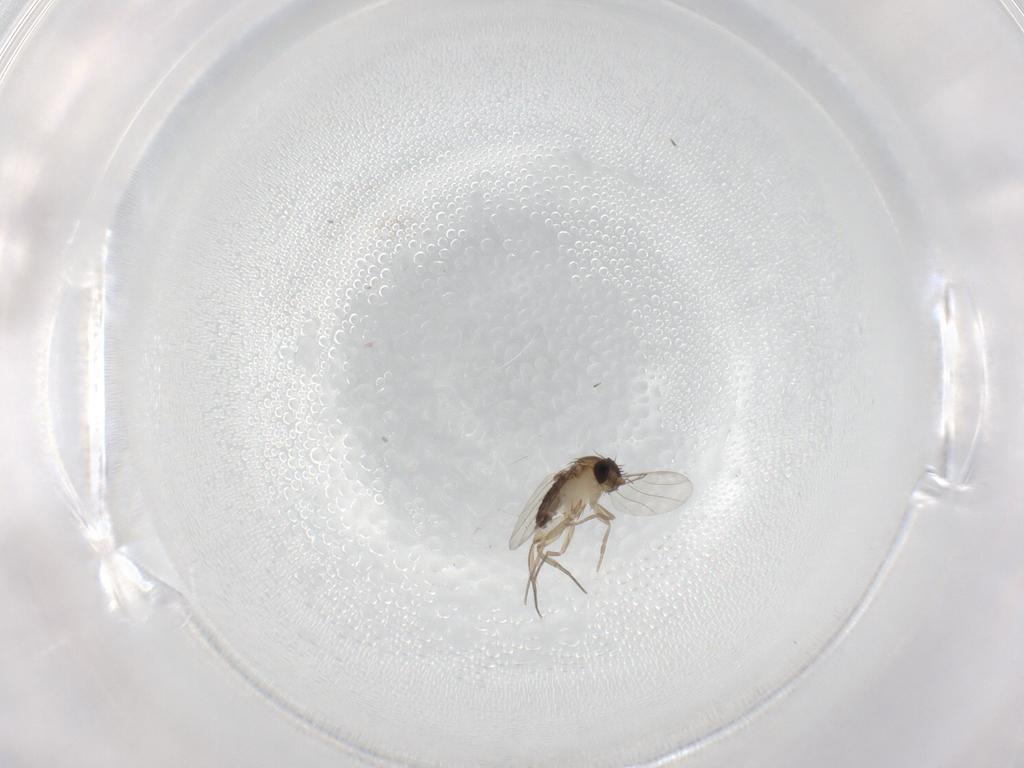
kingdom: Animalia
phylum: Arthropoda
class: Insecta
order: Diptera
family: Phoridae
